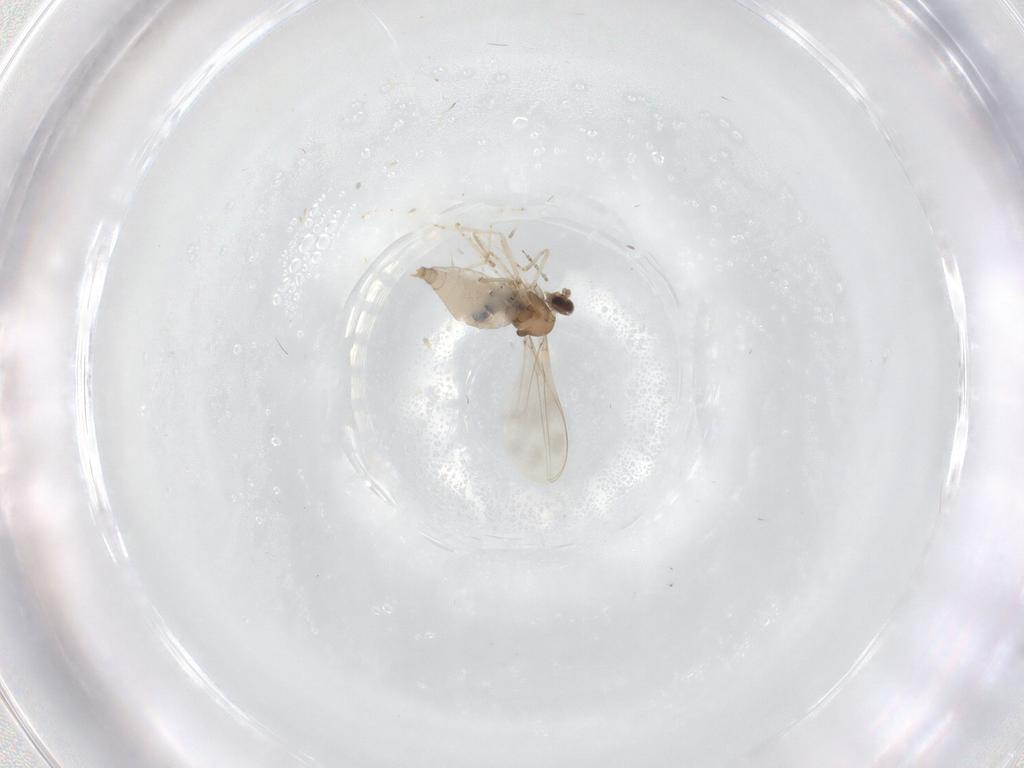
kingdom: Animalia
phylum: Arthropoda
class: Insecta
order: Diptera
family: Cecidomyiidae
